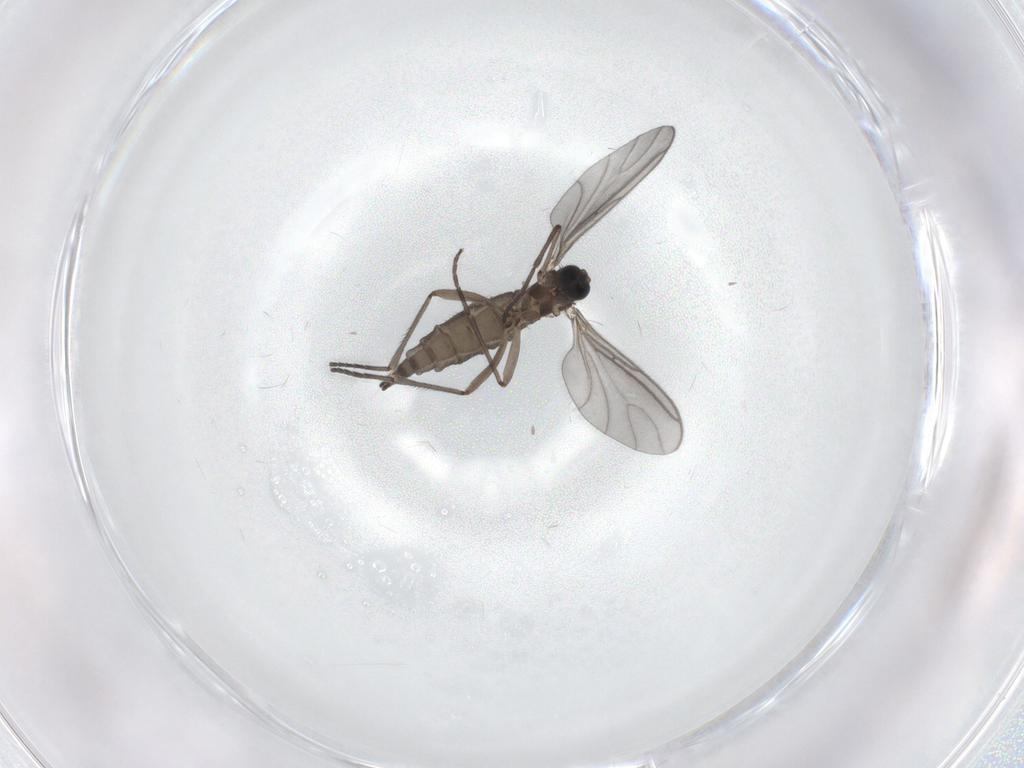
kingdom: Animalia
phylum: Arthropoda
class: Insecta
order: Diptera
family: Sciaridae
